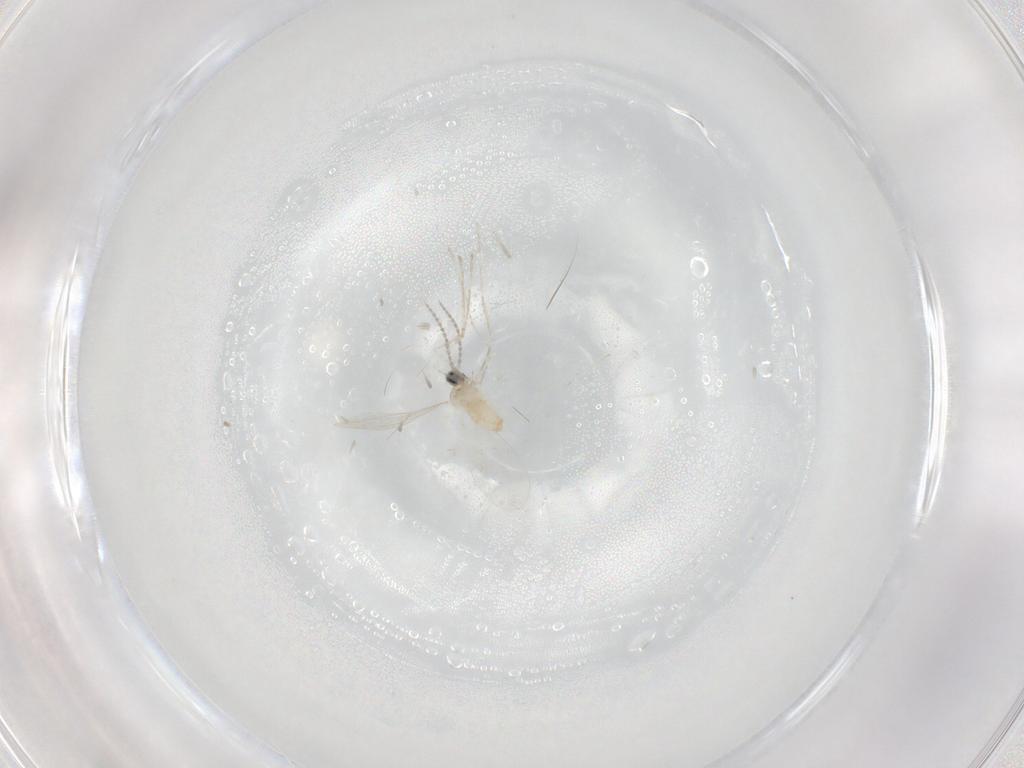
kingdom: Animalia
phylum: Arthropoda
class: Insecta
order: Diptera
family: Cecidomyiidae
